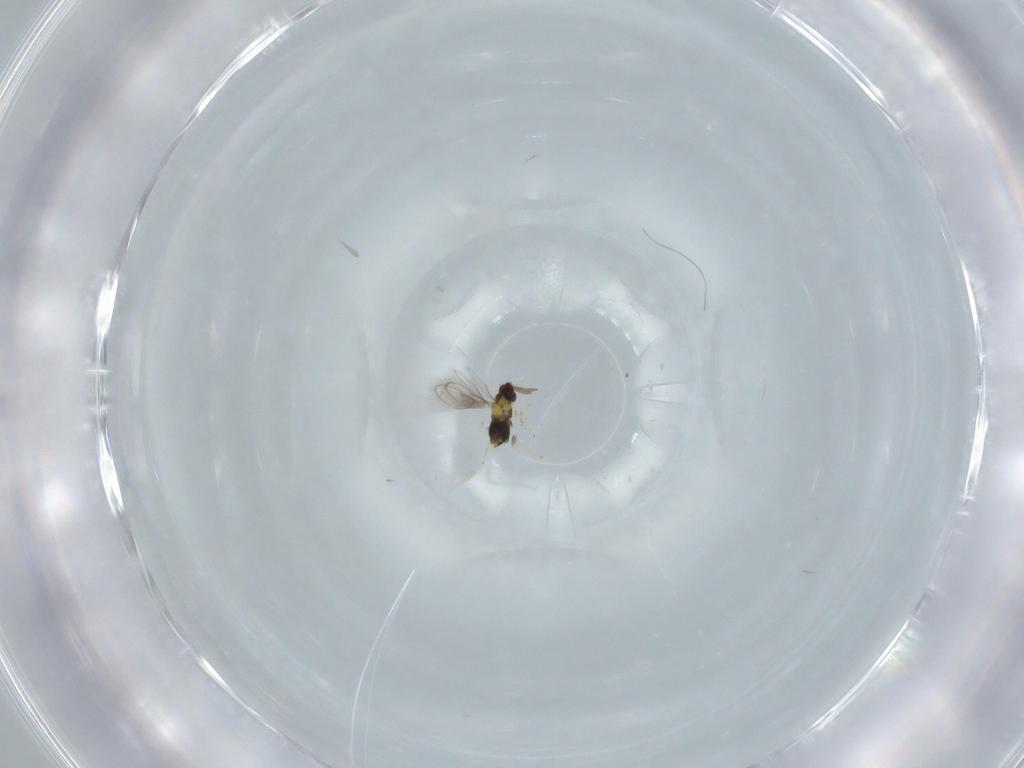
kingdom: Animalia
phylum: Arthropoda
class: Insecta
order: Hymenoptera
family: Aphelinidae
